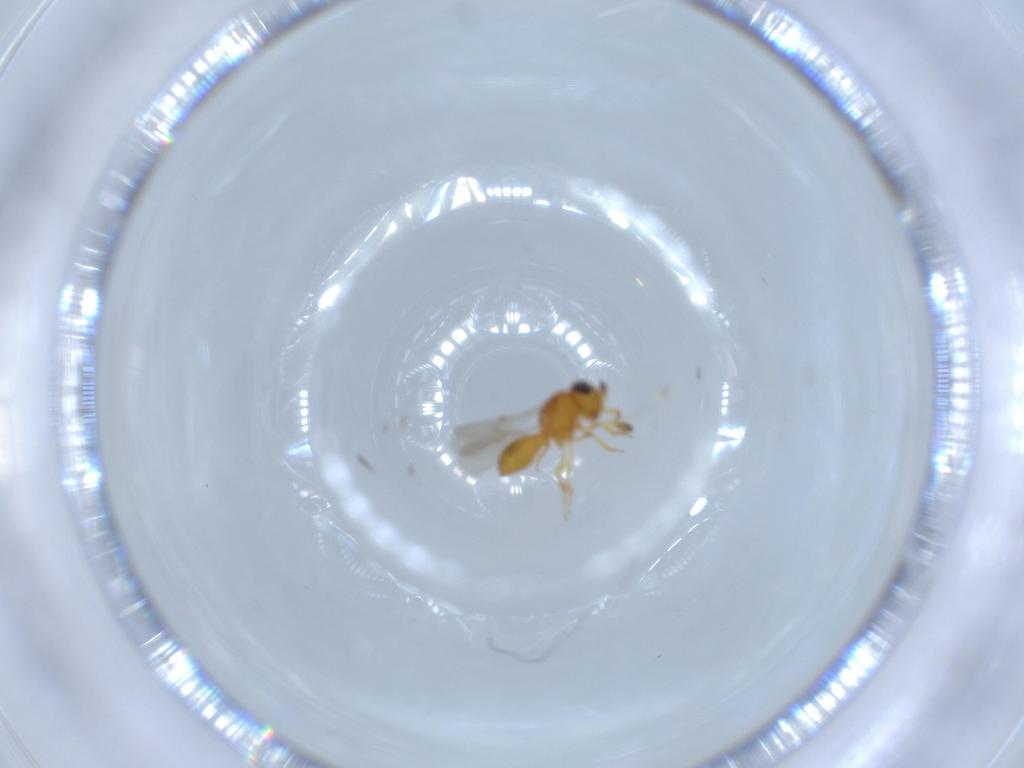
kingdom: Animalia
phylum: Arthropoda
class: Insecta
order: Hymenoptera
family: Scelionidae
